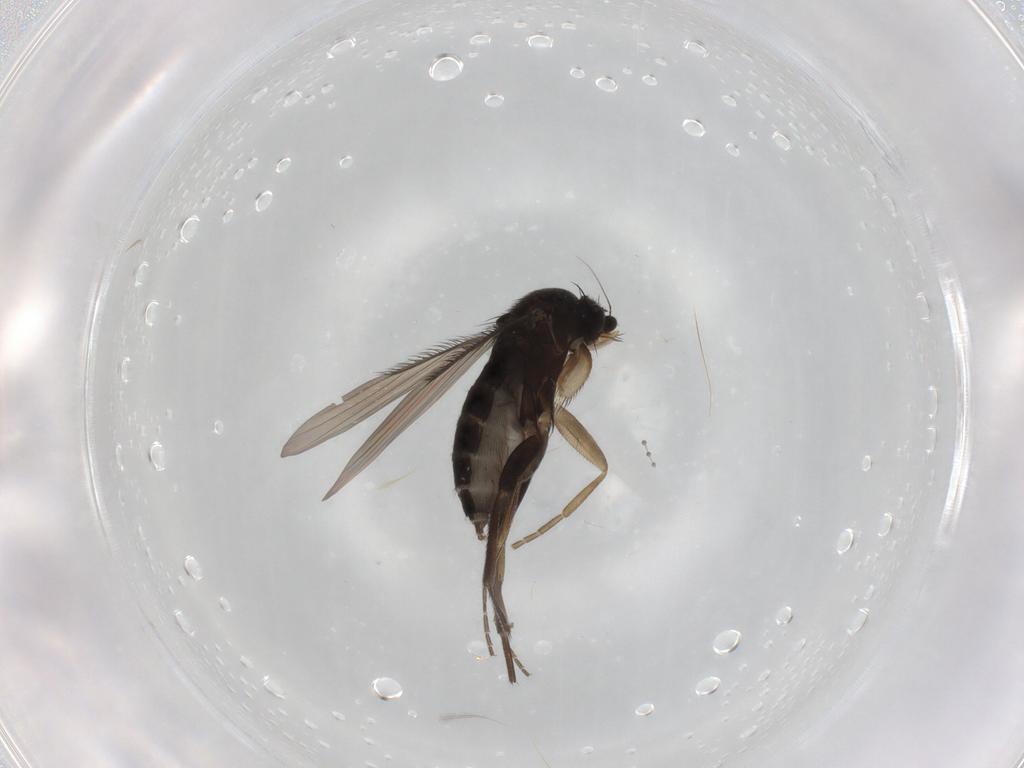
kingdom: Animalia
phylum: Arthropoda
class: Insecta
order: Diptera
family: Phoridae
